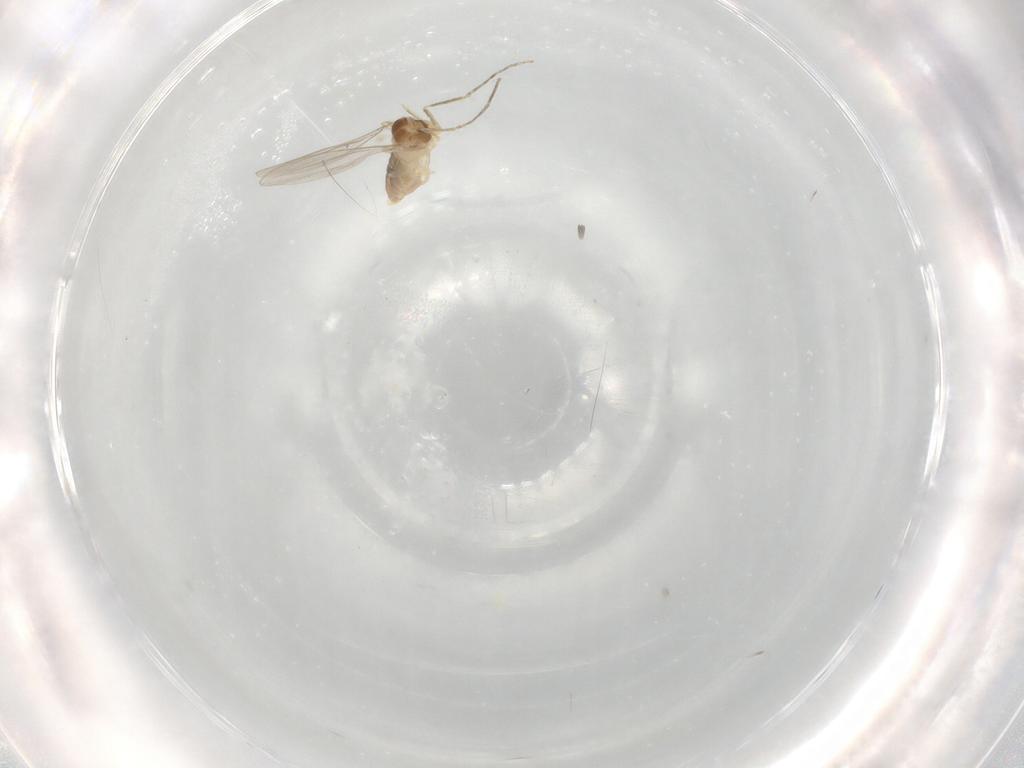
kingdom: Animalia
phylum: Arthropoda
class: Insecta
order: Diptera
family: Cecidomyiidae
